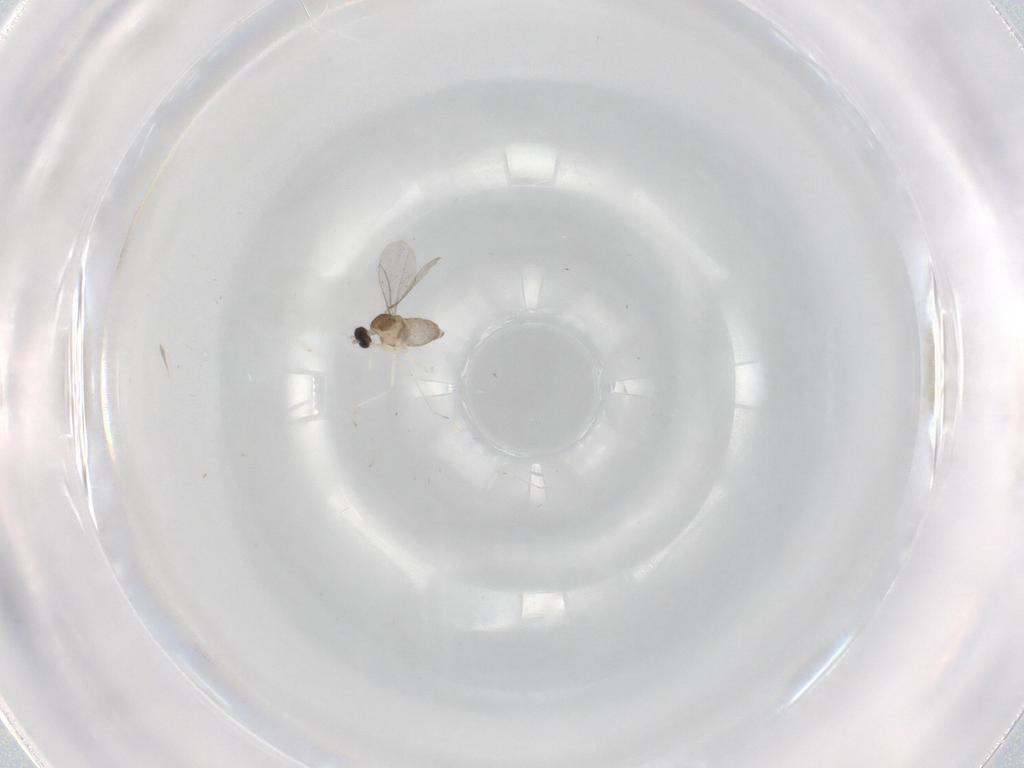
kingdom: Animalia
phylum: Arthropoda
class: Insecta
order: Diptera
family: Cecidomyiidae
